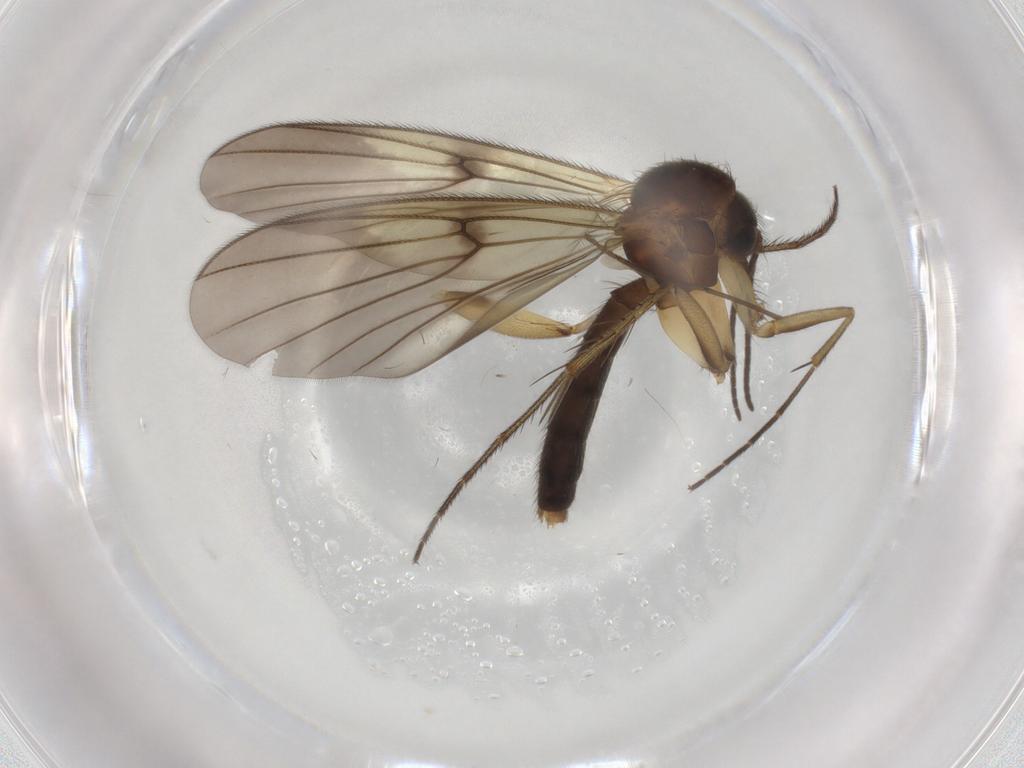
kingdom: Animalia
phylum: Arthropoda
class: Insecta
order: Diptera
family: Mycetophilidae
